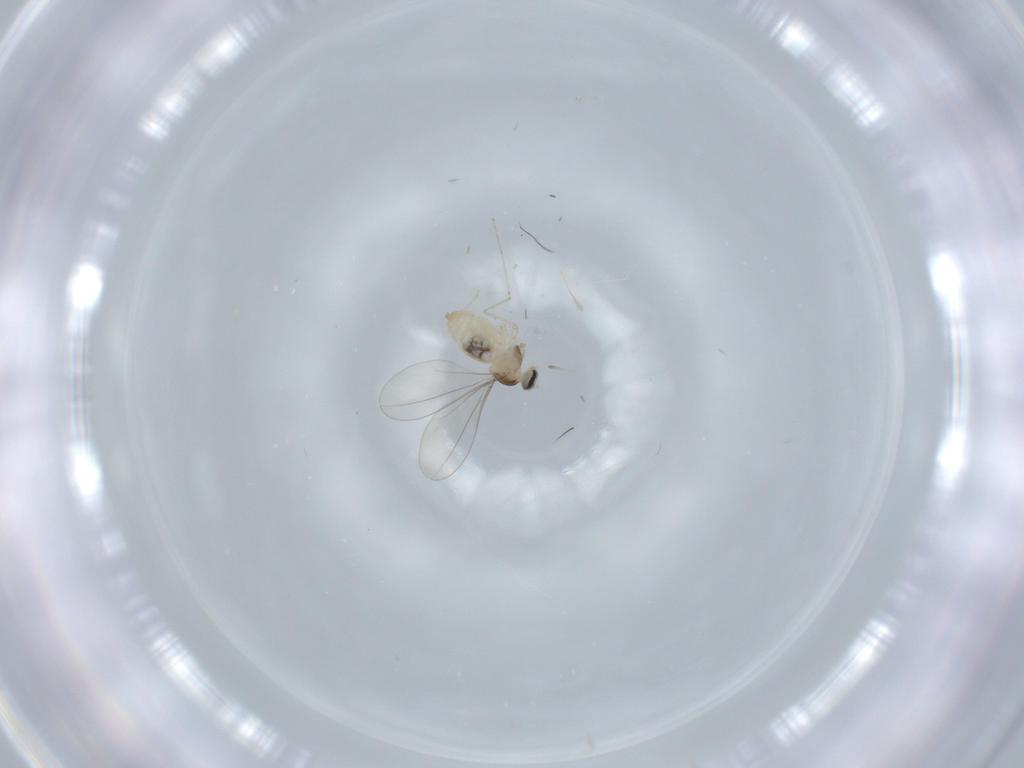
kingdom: Animalia
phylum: Arthropoda
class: Insecta
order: Diptera
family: Cecidomyiidae
